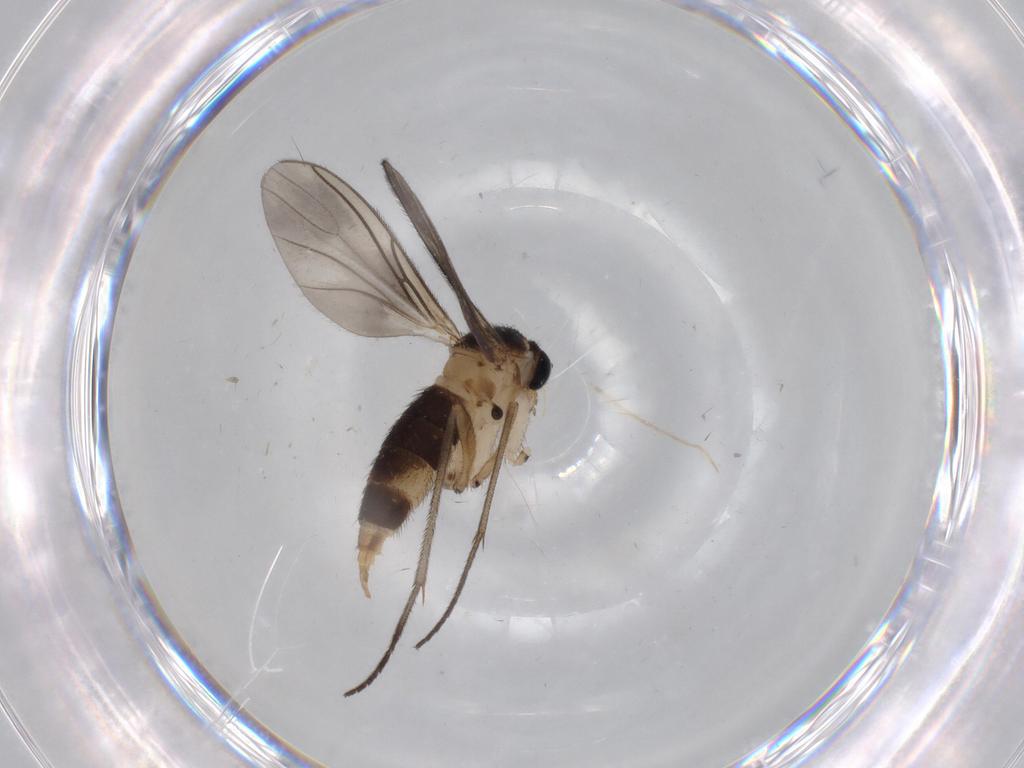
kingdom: Animalia
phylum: Arthropoda
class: Insecta
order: Diptera
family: Sciaridae
